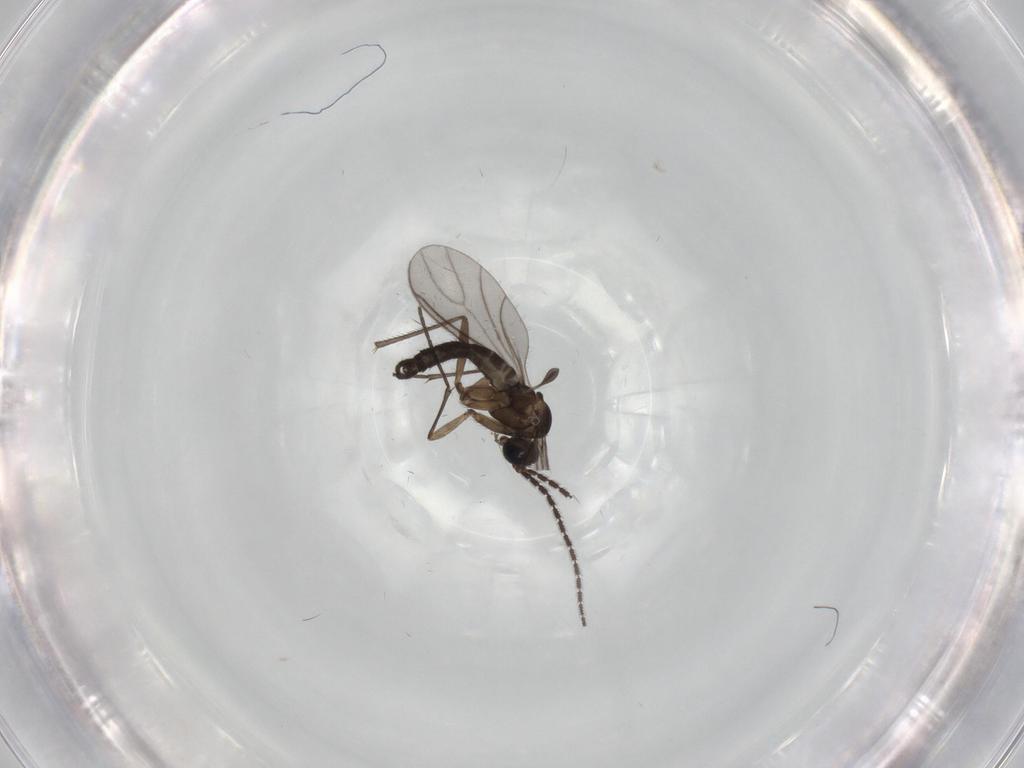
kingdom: Animalia
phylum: Arthropoda
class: Insecta
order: Diptera
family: Sciaridae
